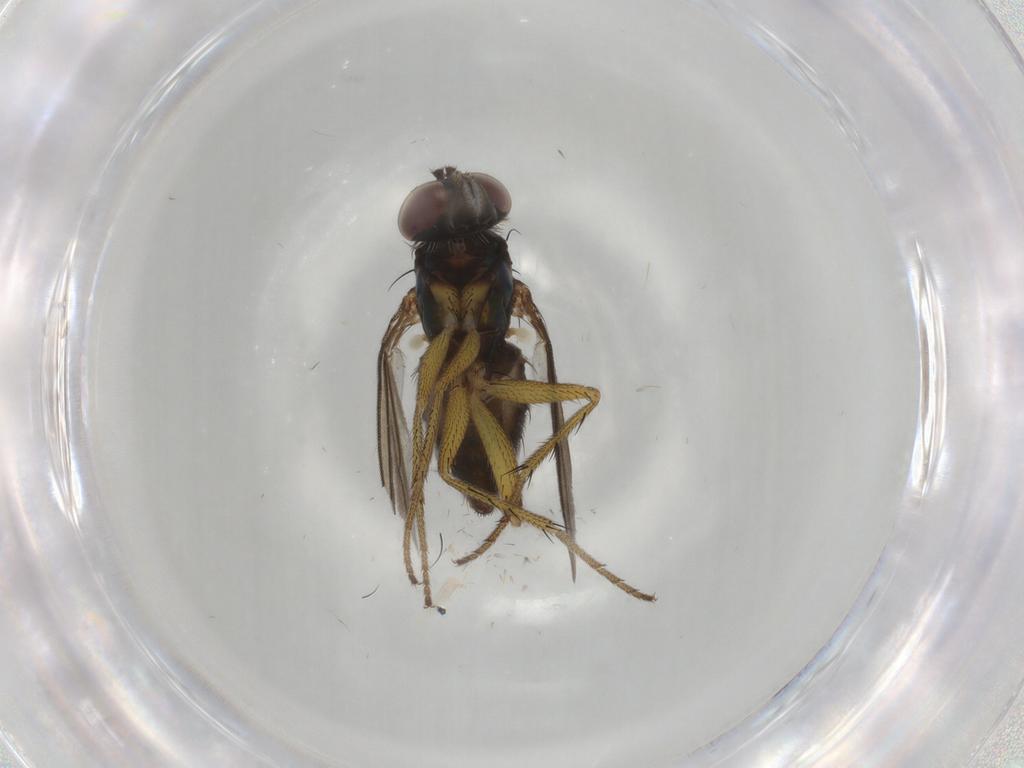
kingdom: Animalia
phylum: Arthropoda
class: Insecta
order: Diptera
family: Dolichopodidae
